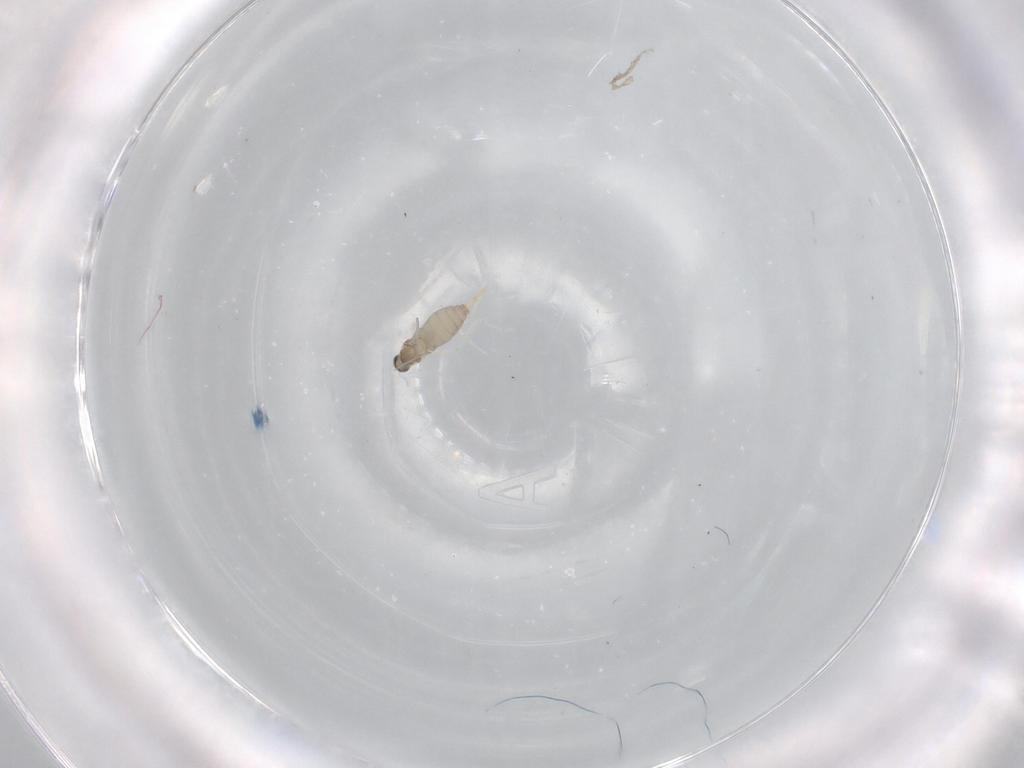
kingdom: Animalia
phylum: Arthropoda
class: Insecta
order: Diptera
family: Cecidomyiidae
